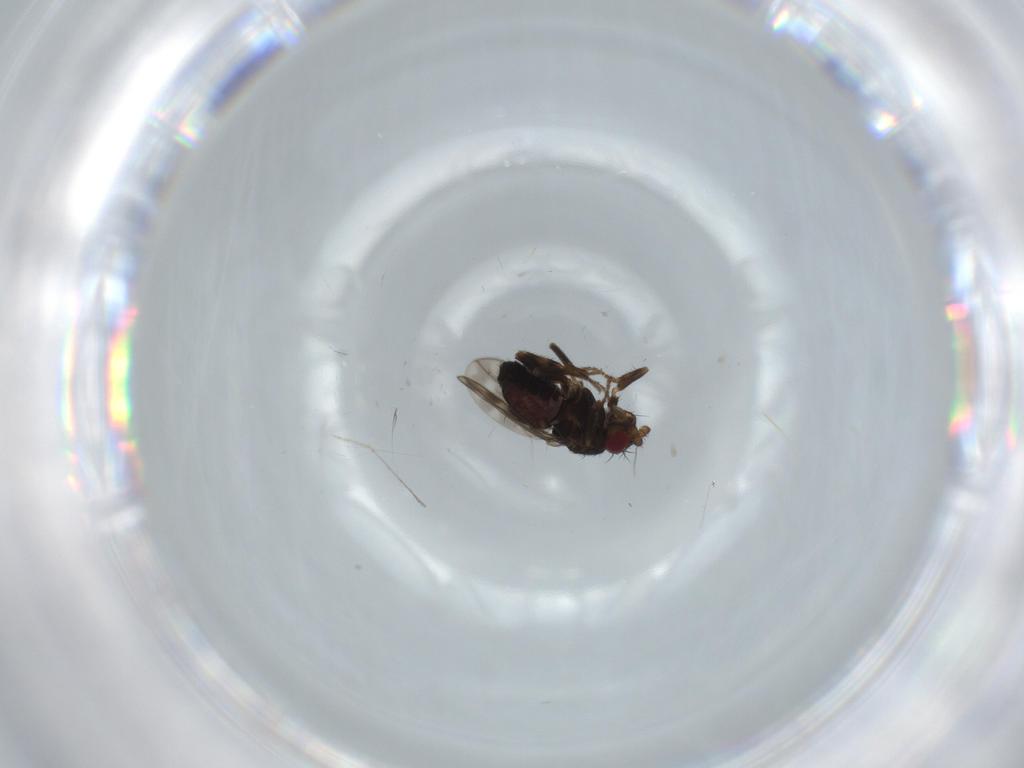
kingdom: Animalia
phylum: Arthropoda
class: Insecta
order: Diptera
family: Sphaeroceridae
